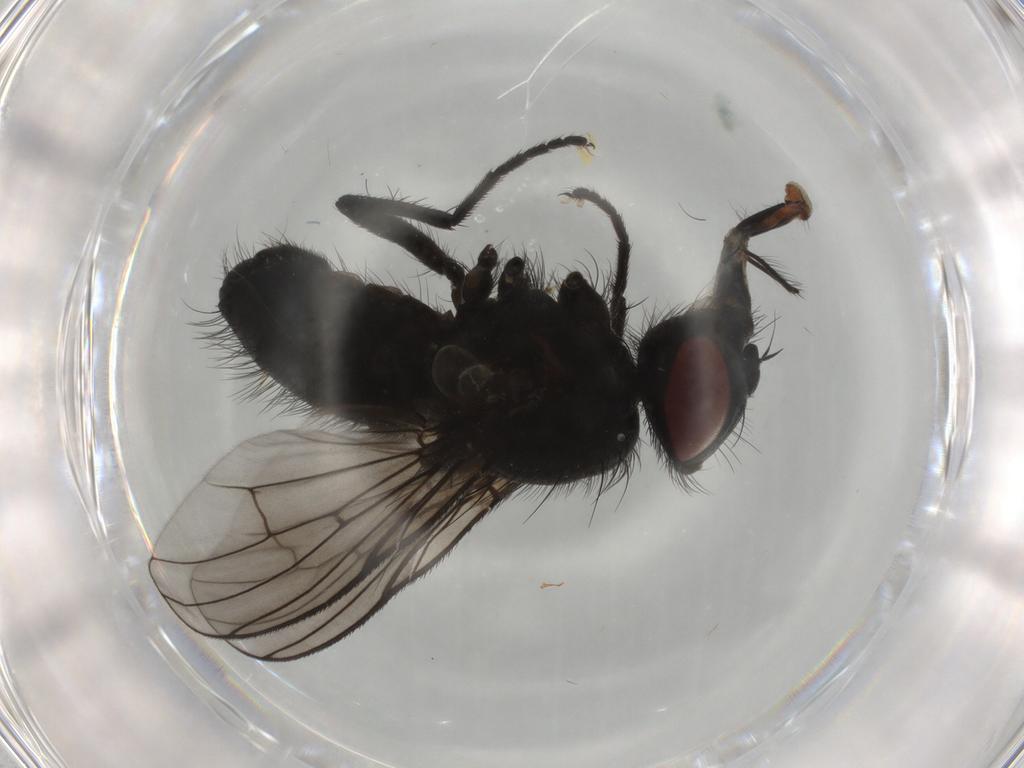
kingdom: Animalia
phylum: Arthropoda
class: Insecta
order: Diptera
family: Muscidae
